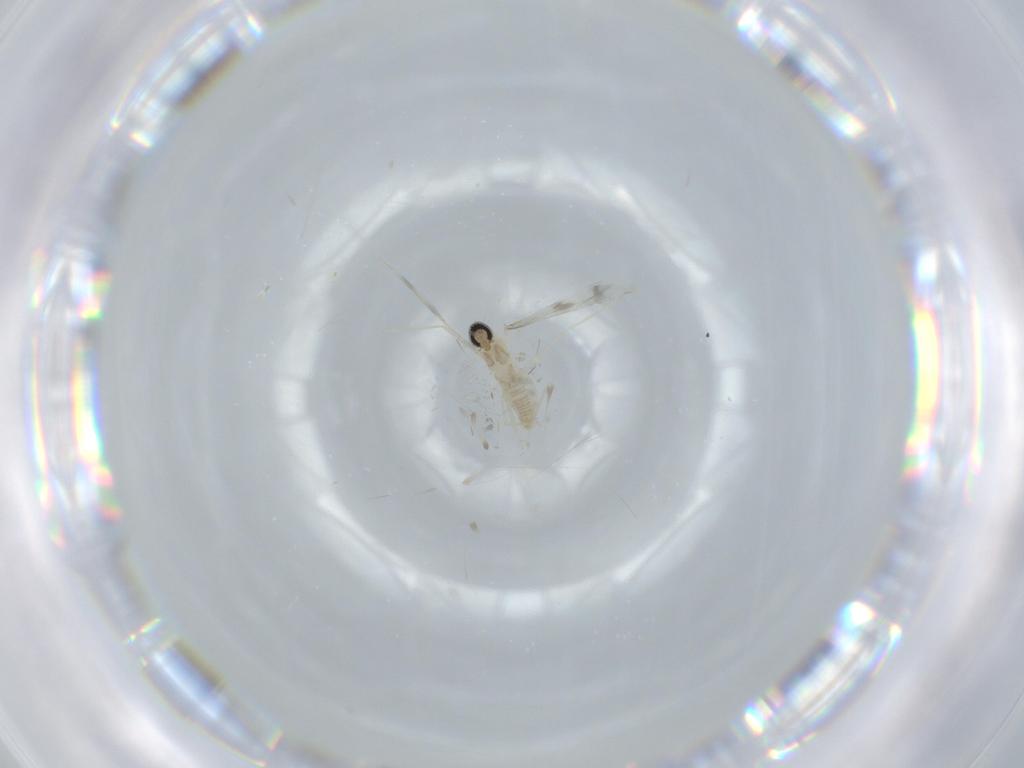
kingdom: Animalia
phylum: Arthropoda
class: Insecta
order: Diptera
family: Cecidomyiidae
